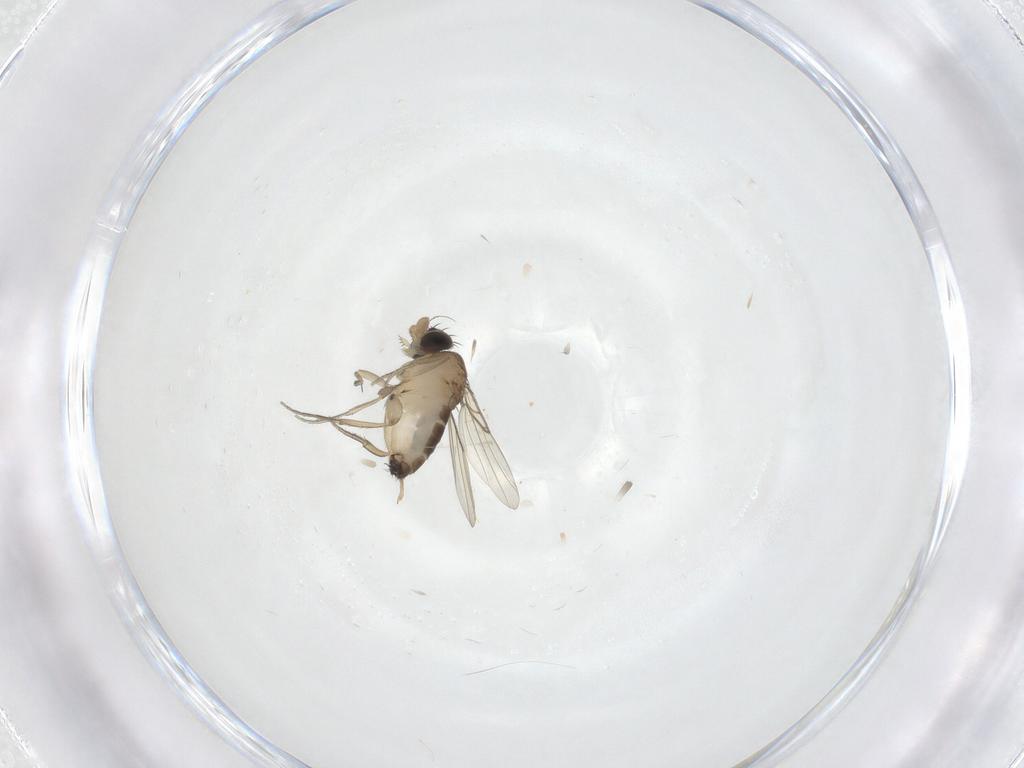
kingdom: Animalia
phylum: Arthropoda
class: Insecta
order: Diptera
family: Phoridae
